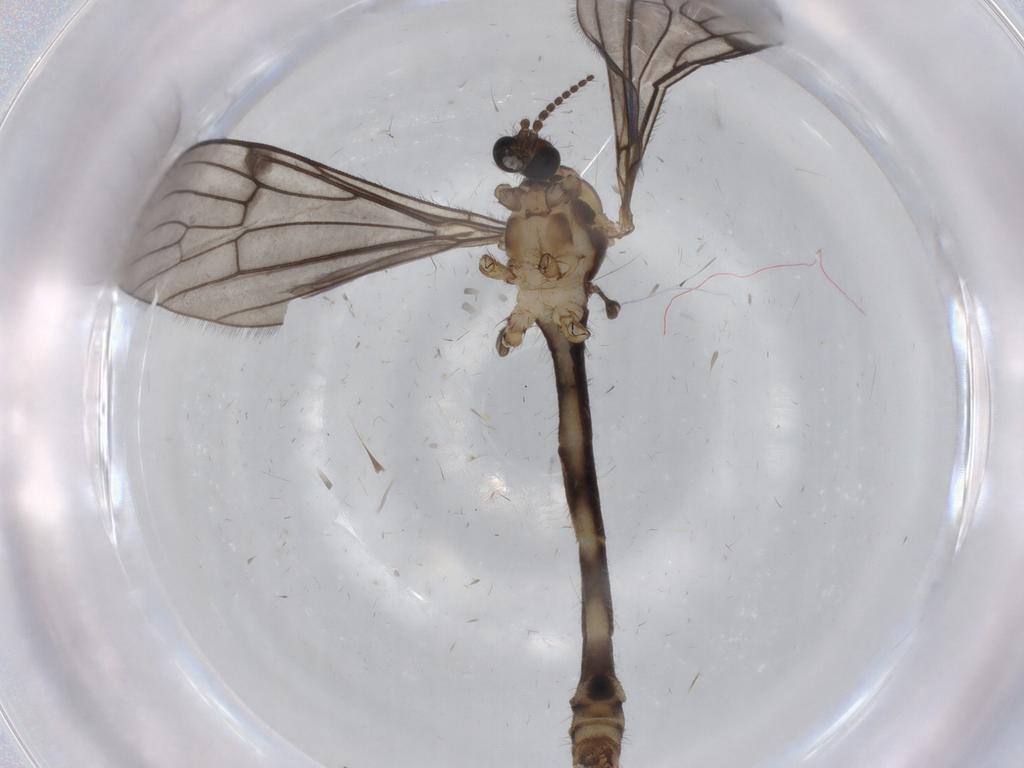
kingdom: Animalia
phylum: Arthropoda
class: Insecta
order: Diptera
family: Limoniidae
